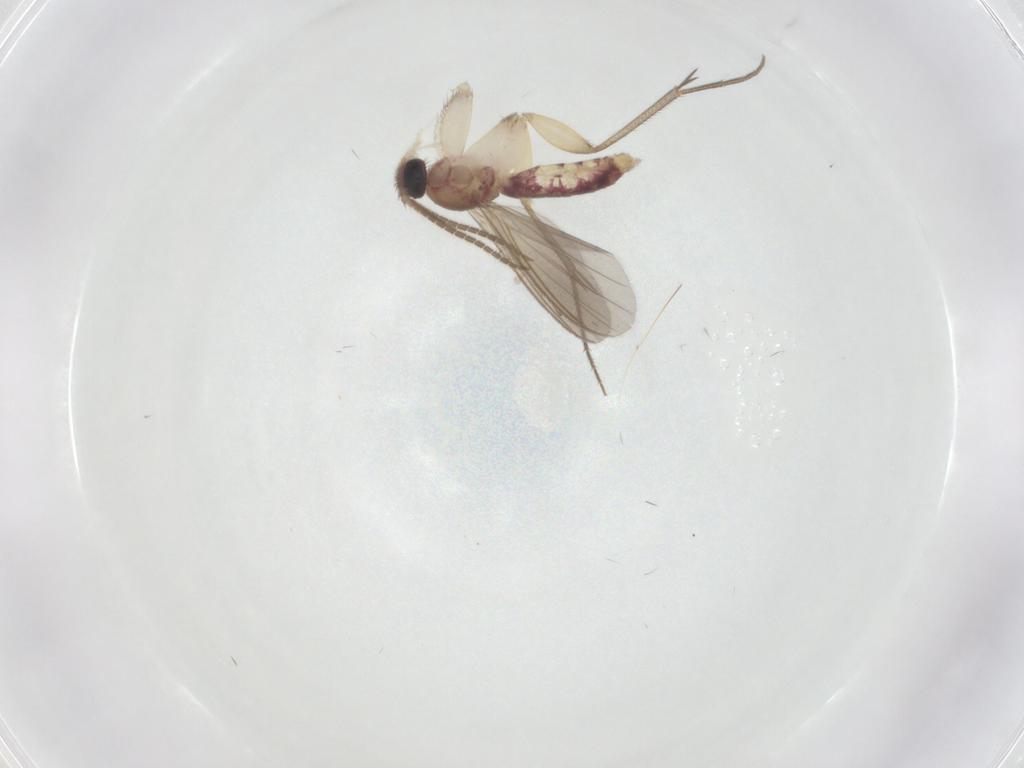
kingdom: Animalia
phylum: Arthropoda
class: Insecta
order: Diptera
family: Mycetophilidae
